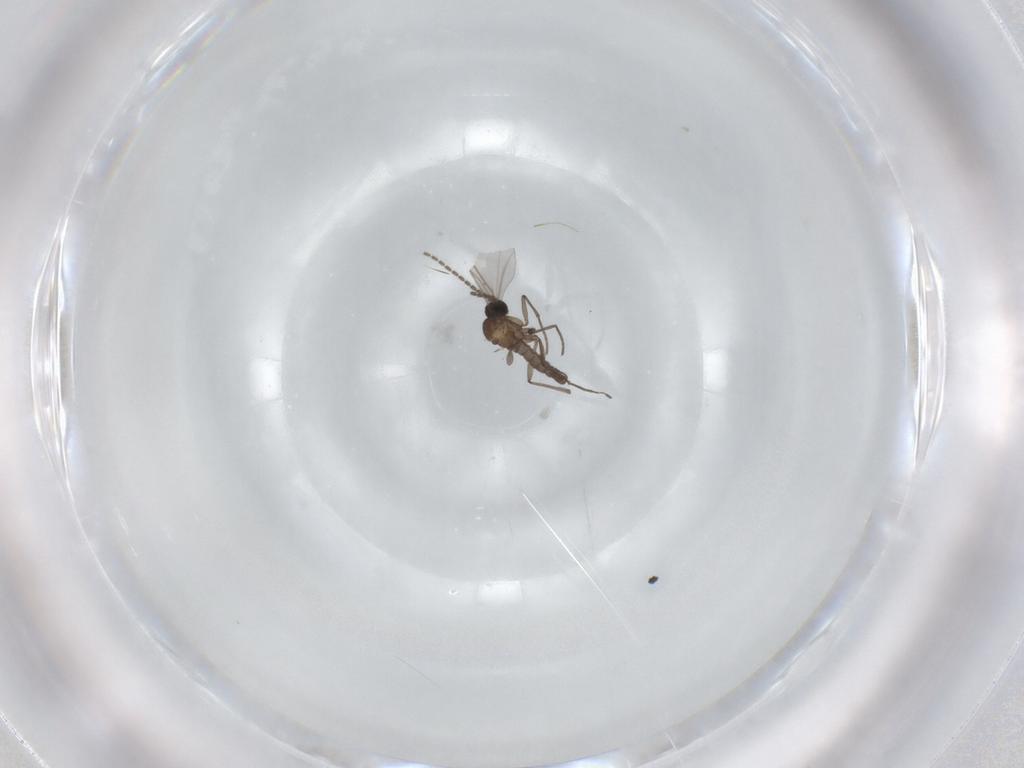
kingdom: Animalia
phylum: Arthropoda
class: Insecta
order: Diptera
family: Sciaridae
